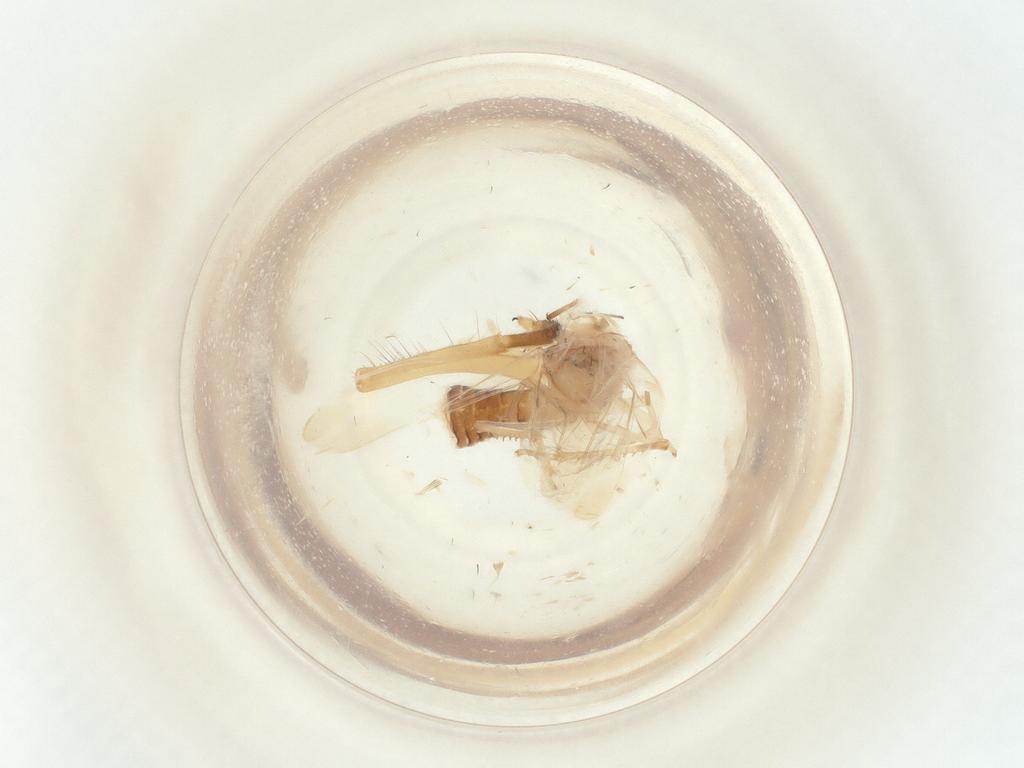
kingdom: Animalia
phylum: Arthropoda
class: Insecta
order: Diptera
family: Syrphidae
